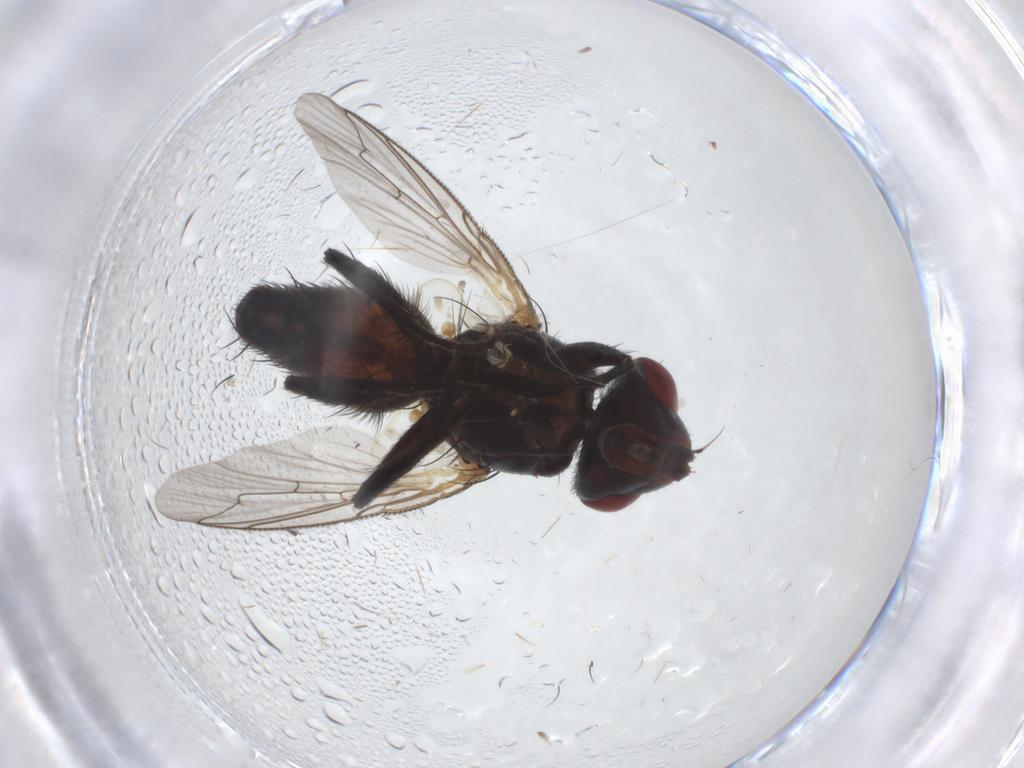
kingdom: Animalia
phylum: Arthropoda
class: Insecta
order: Diptera
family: Sarcophagidae
